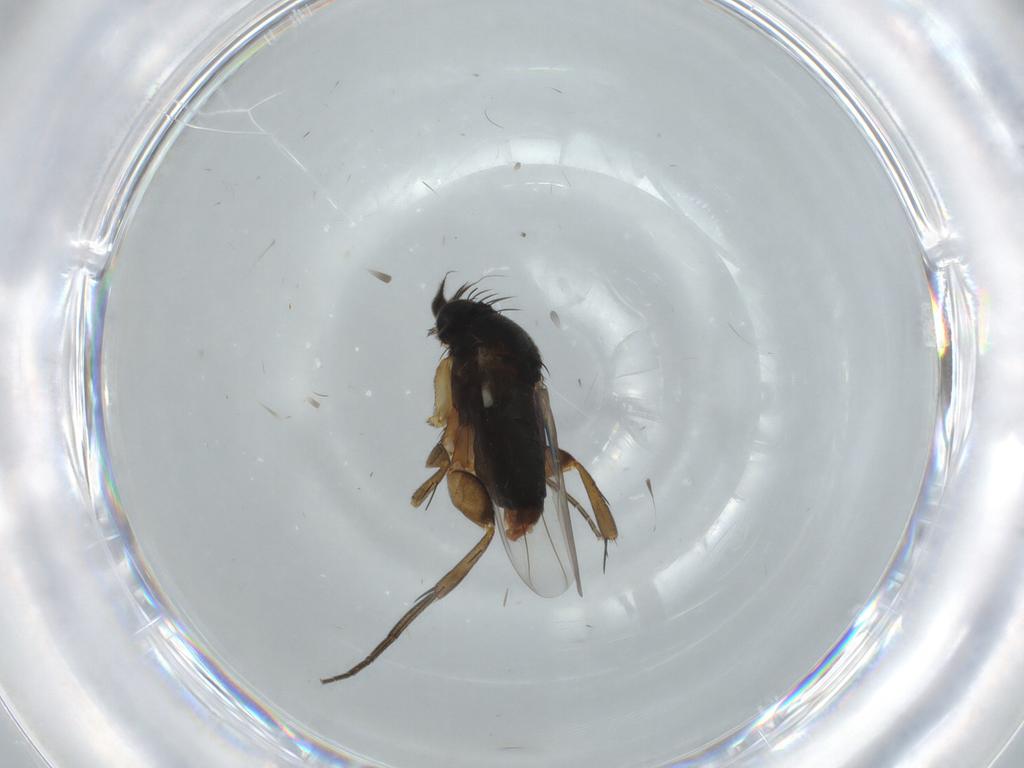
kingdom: Animalia
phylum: Arthropoda
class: Insecta
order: Diptera
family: Phoridae
